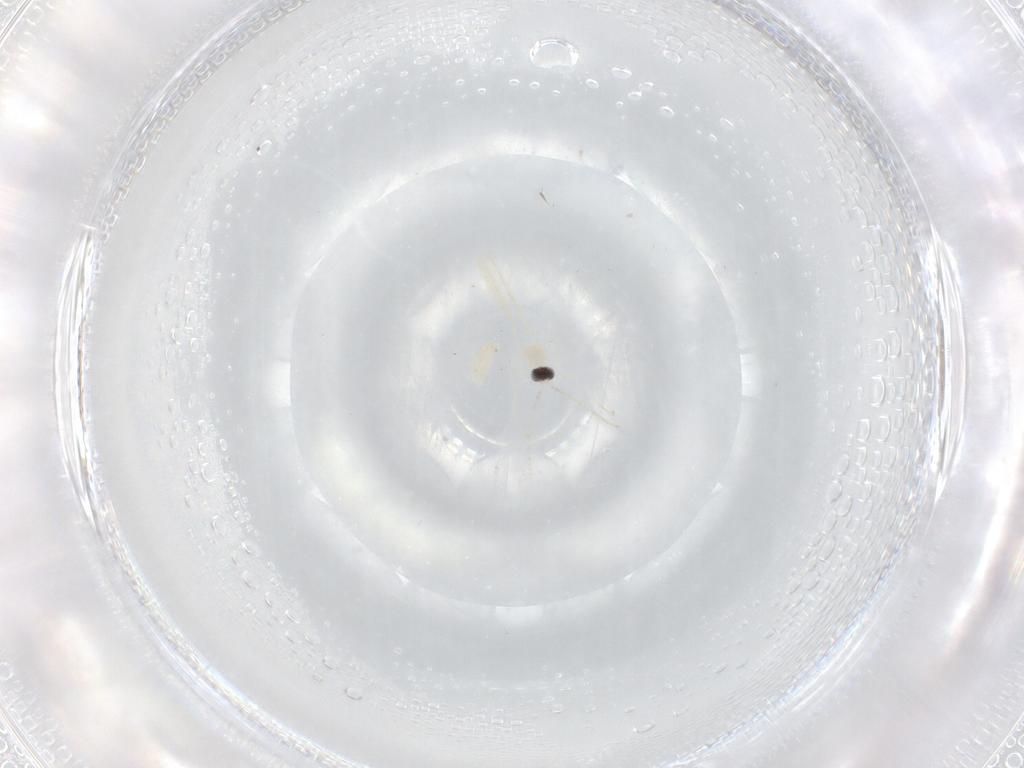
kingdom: Animalia
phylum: Arthropoda
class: Insecta
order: Diptera
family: Cecidomyiidae
